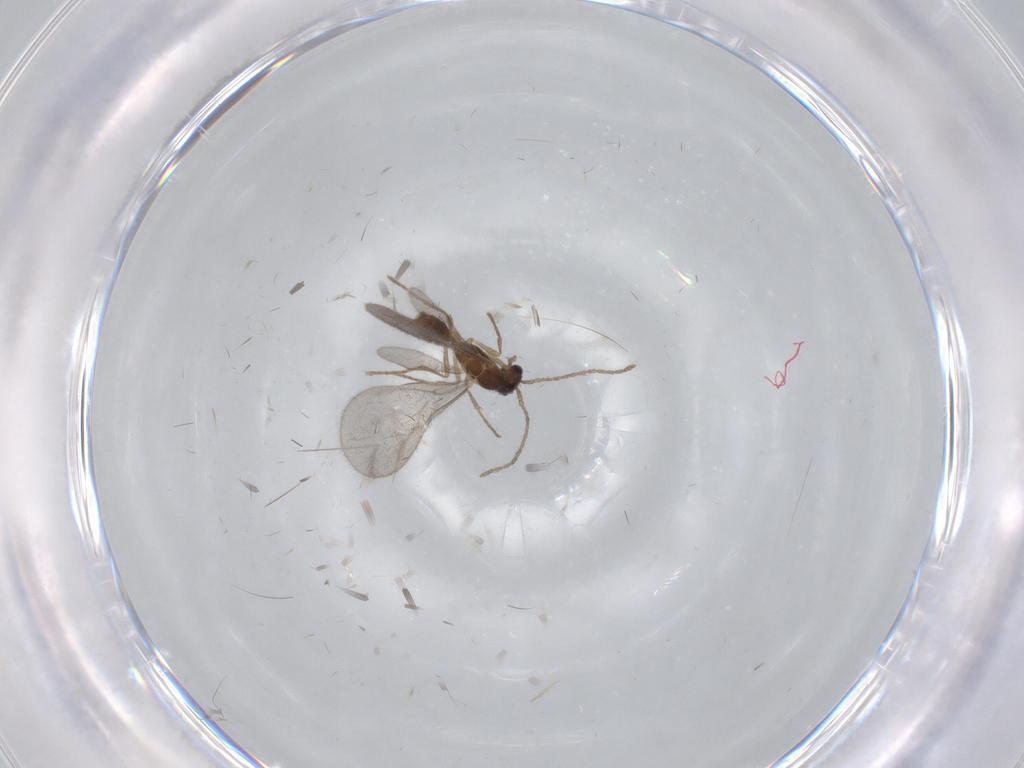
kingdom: Animalia
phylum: Arthropoda
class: Insecta
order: Hymenoptera
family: Formicidae
